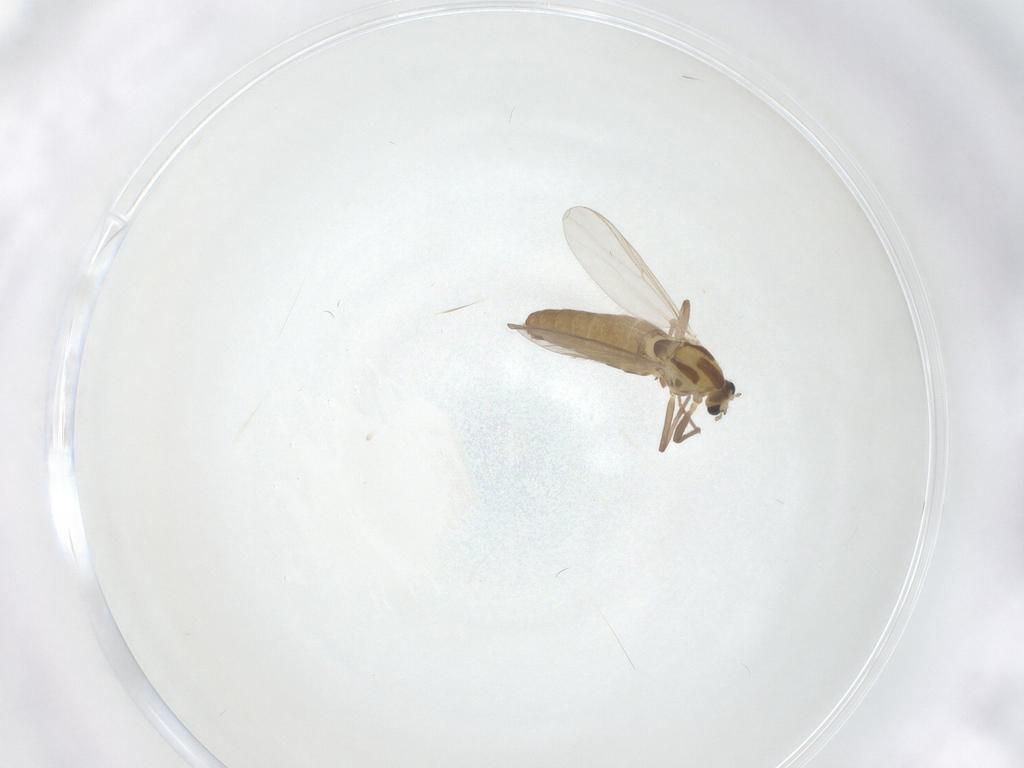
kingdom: Animalia
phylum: Arthropoda
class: Insecta
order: Diptera
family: Chironomidae
